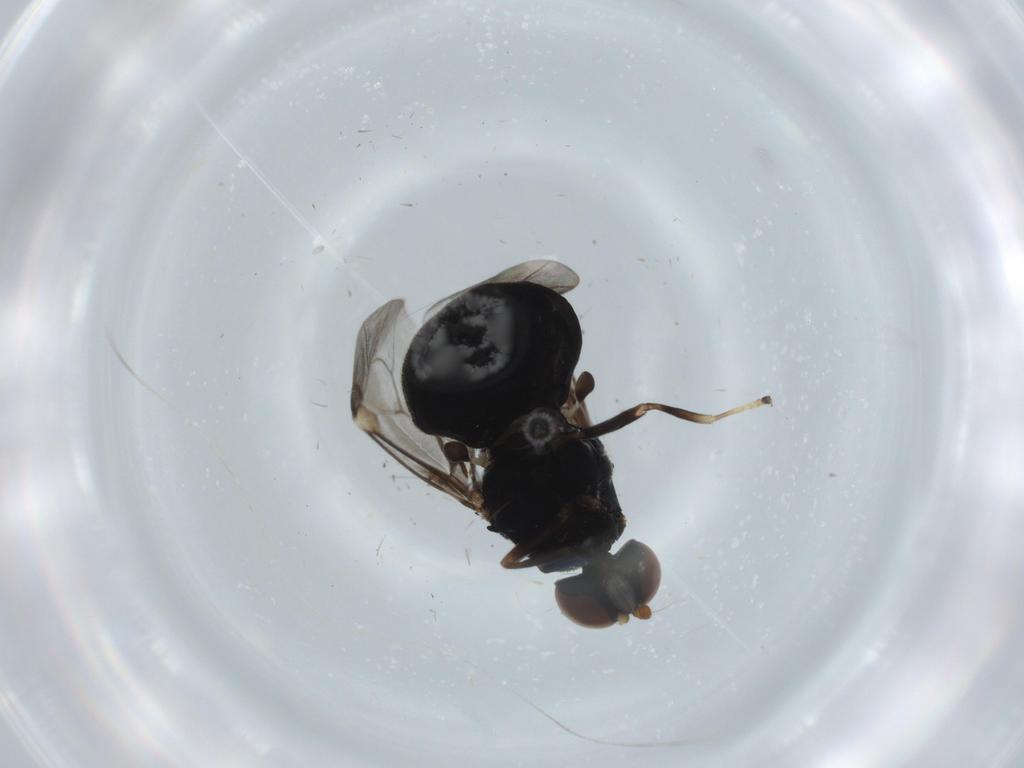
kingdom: Animalia
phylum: Arthropoda
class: Insecta
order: Diptera
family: Stratiomyidae
